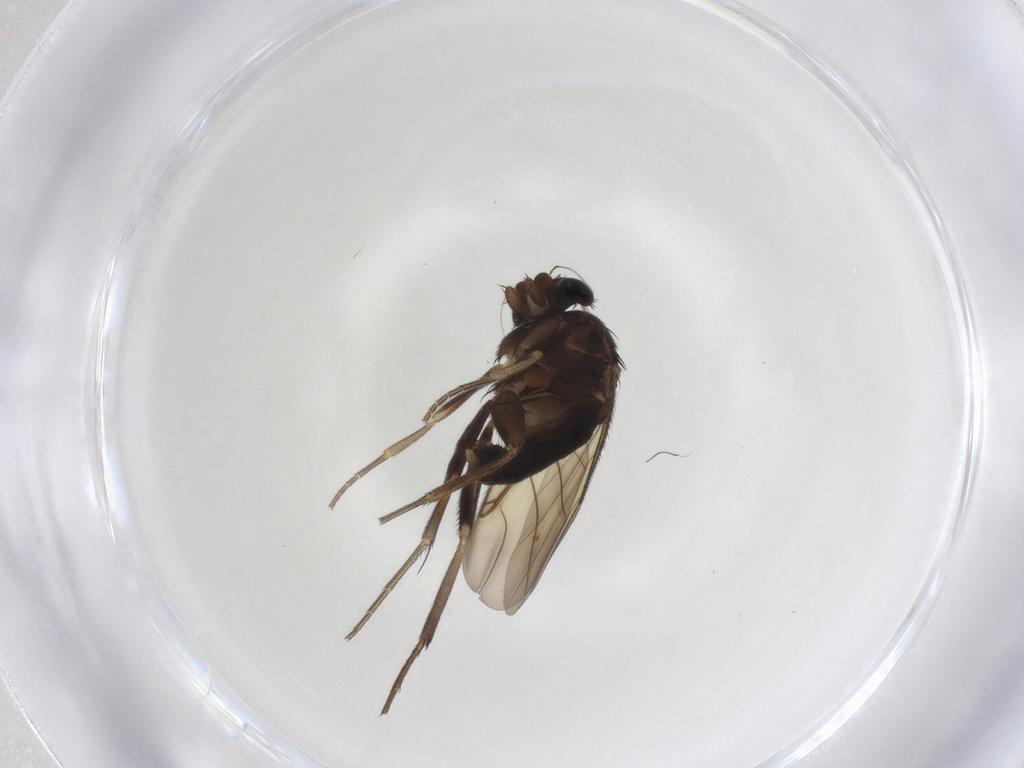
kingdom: Animalia
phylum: Arthropoda
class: Insecta
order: Diptera
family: Phoridae
